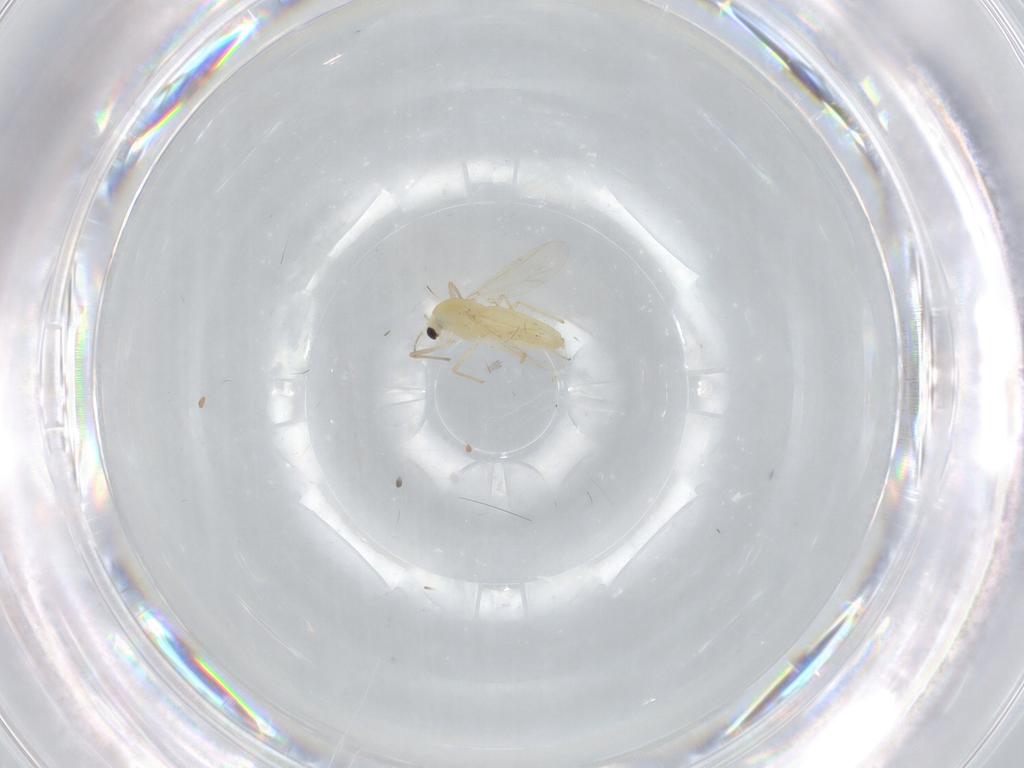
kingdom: Animalia
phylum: Arthropoda
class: Insecta
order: Diptera
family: Chironomidae
